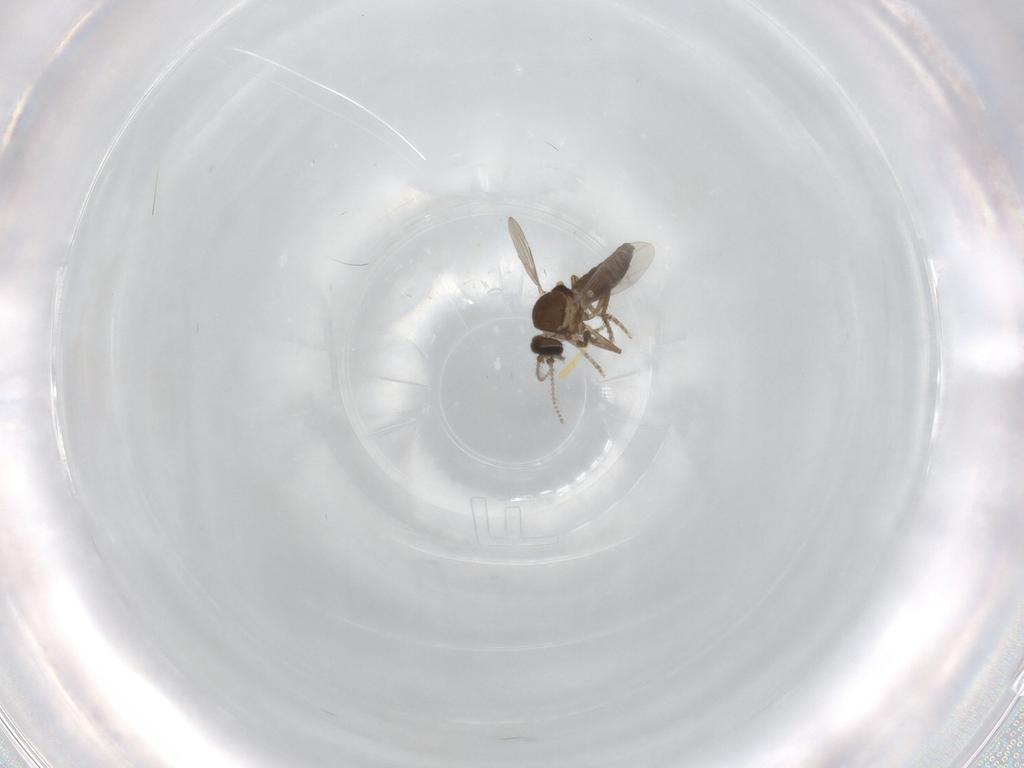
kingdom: Animalia
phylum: Arthropoda
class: Insecta
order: Diptera
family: Ceratopogonidae
